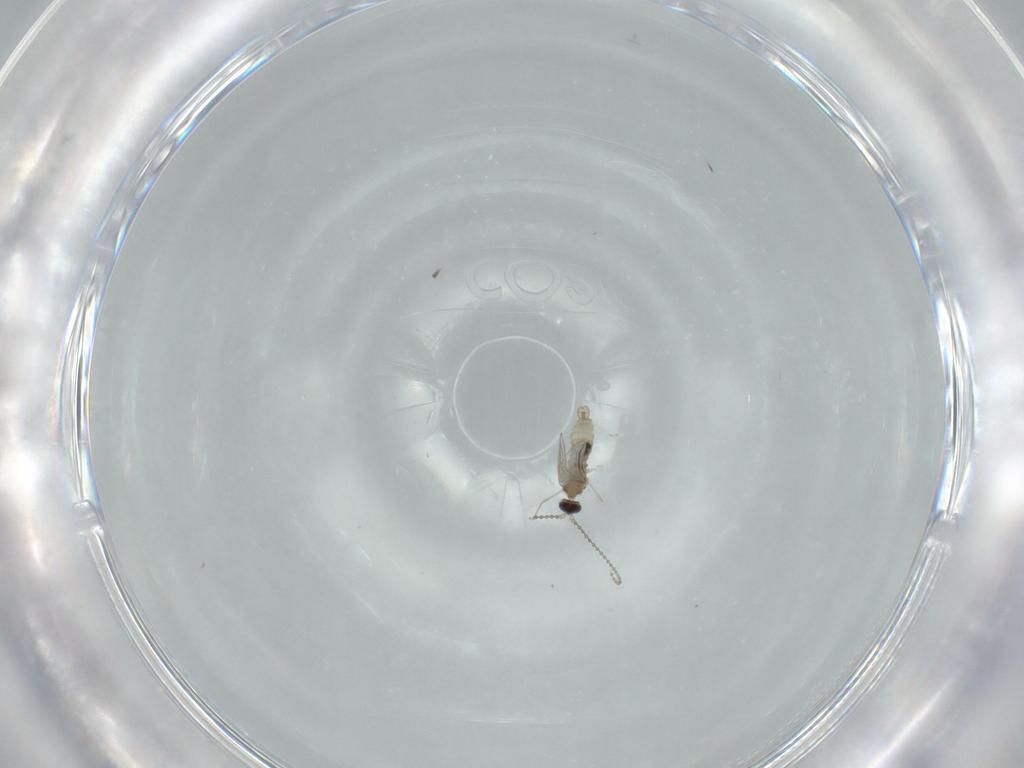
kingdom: Animalia
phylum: Arthropoda
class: Insecta
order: Diptera
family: Cecidomyiidae
